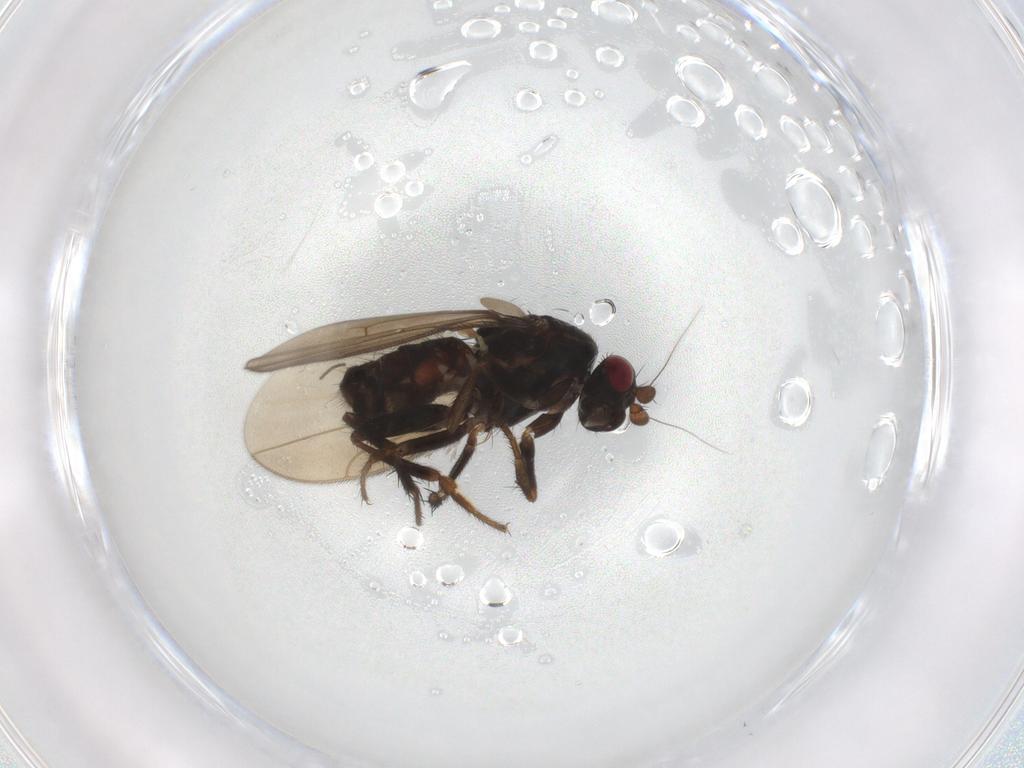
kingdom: Animalia
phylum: Arthropoda
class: Insecta
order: Diptera
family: Sphaeroceridae
